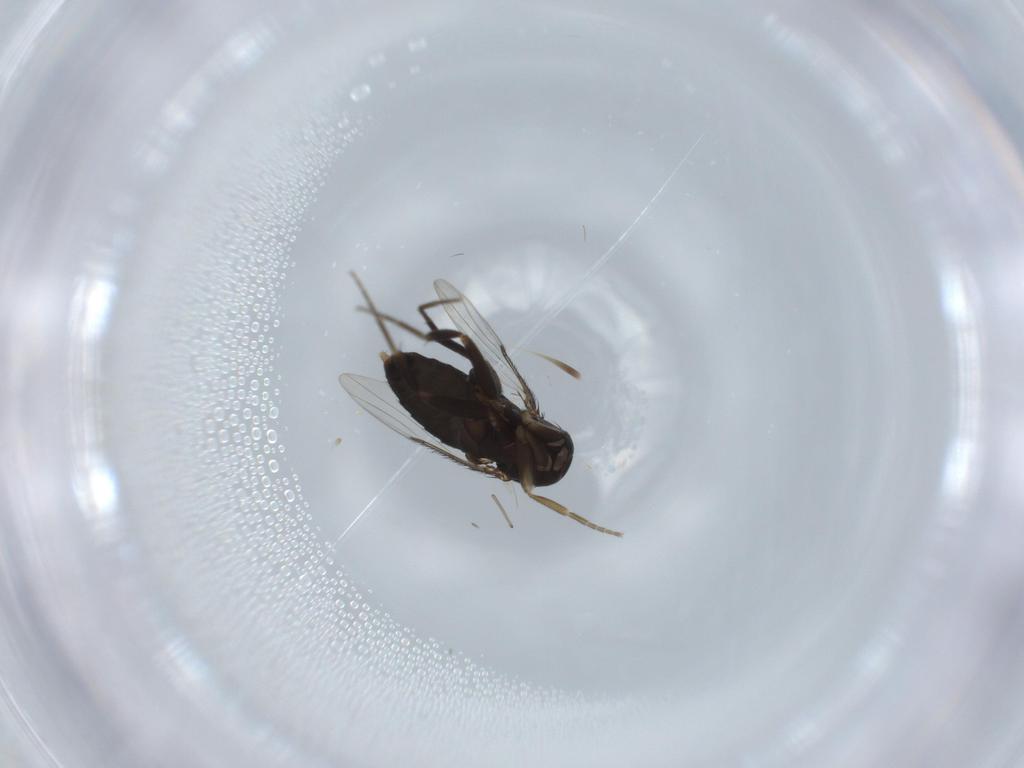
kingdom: Animalia
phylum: Arthropoda
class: Insecta
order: Diptera
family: Phoridae
